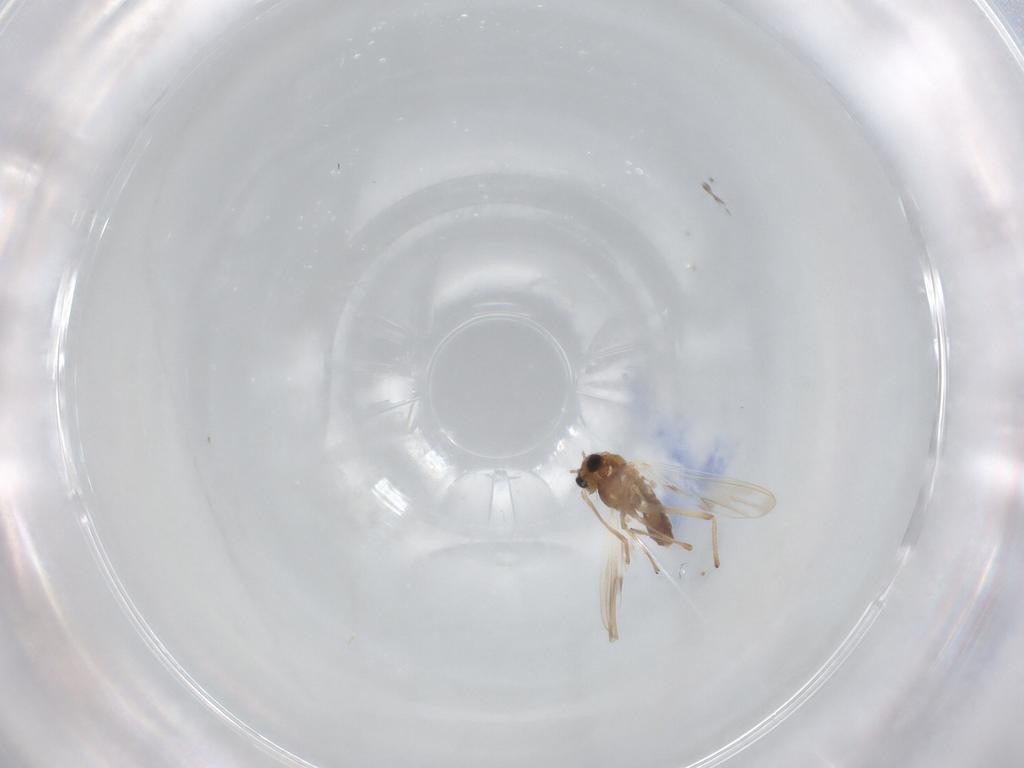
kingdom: Animalia
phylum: Arthropoda
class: Insecta
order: Diptera
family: Chironomidae
